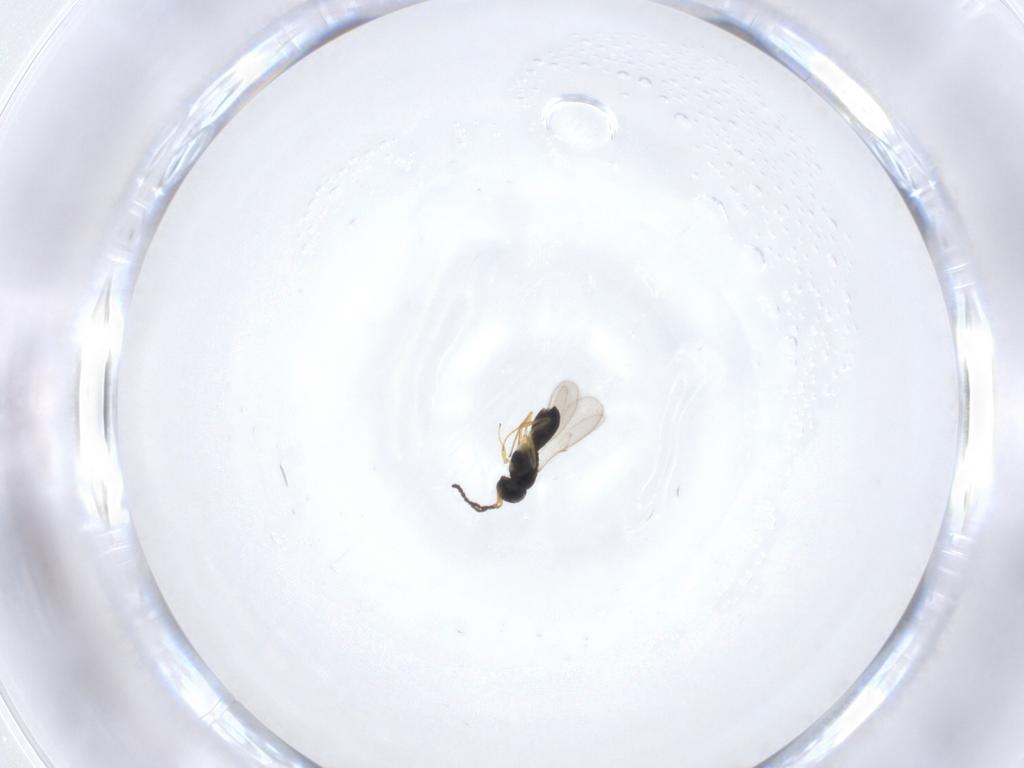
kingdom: Animalia
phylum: Arthropoda
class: Insecta
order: Hymenoptera
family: Scelionidae
